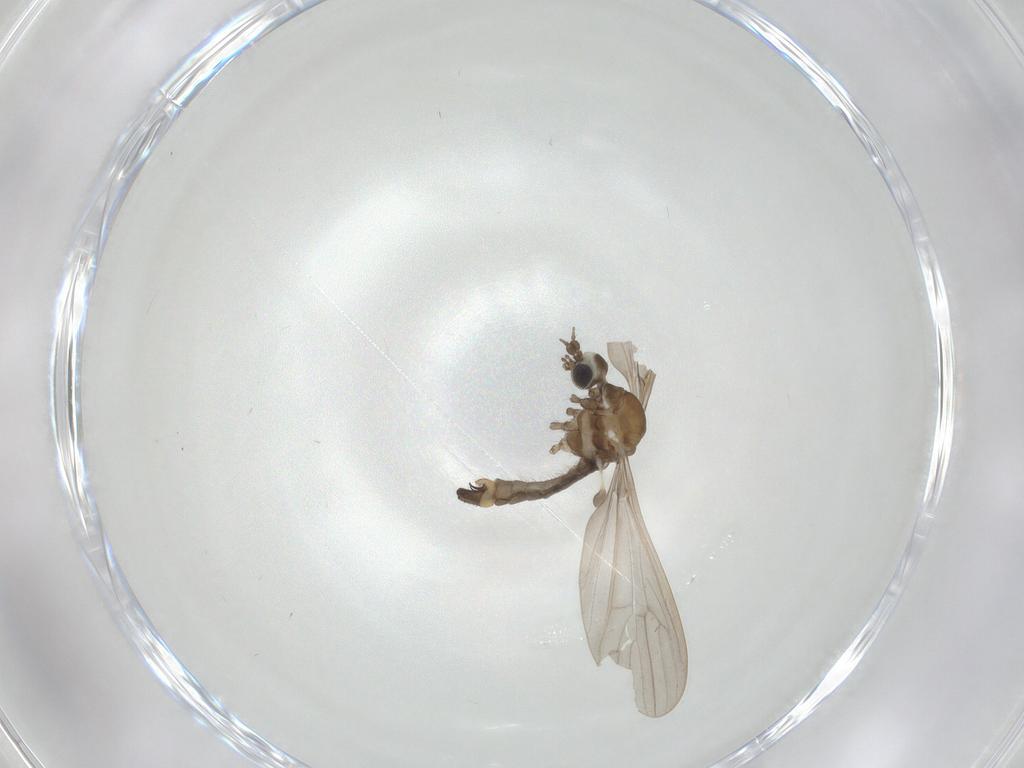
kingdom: Animalia
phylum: Arthropoda
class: Insecta
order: Diptera
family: Limoniidae
